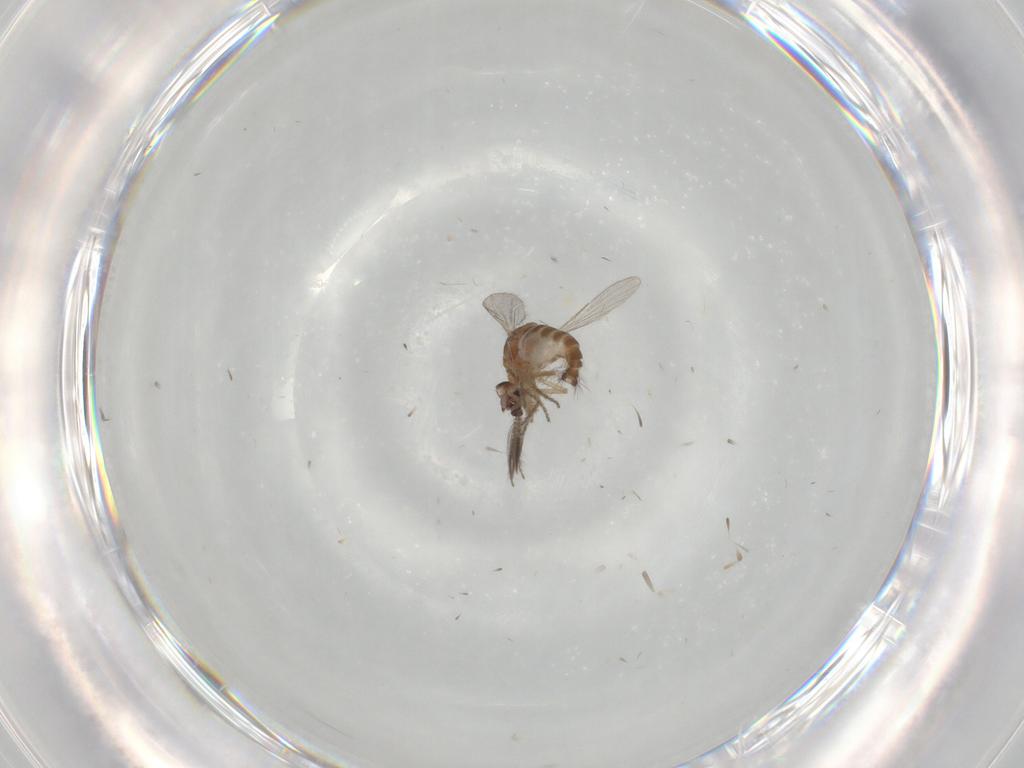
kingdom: Animalia
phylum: Arthropoda
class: Insecta
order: Diptera
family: Ceratopogonidae
